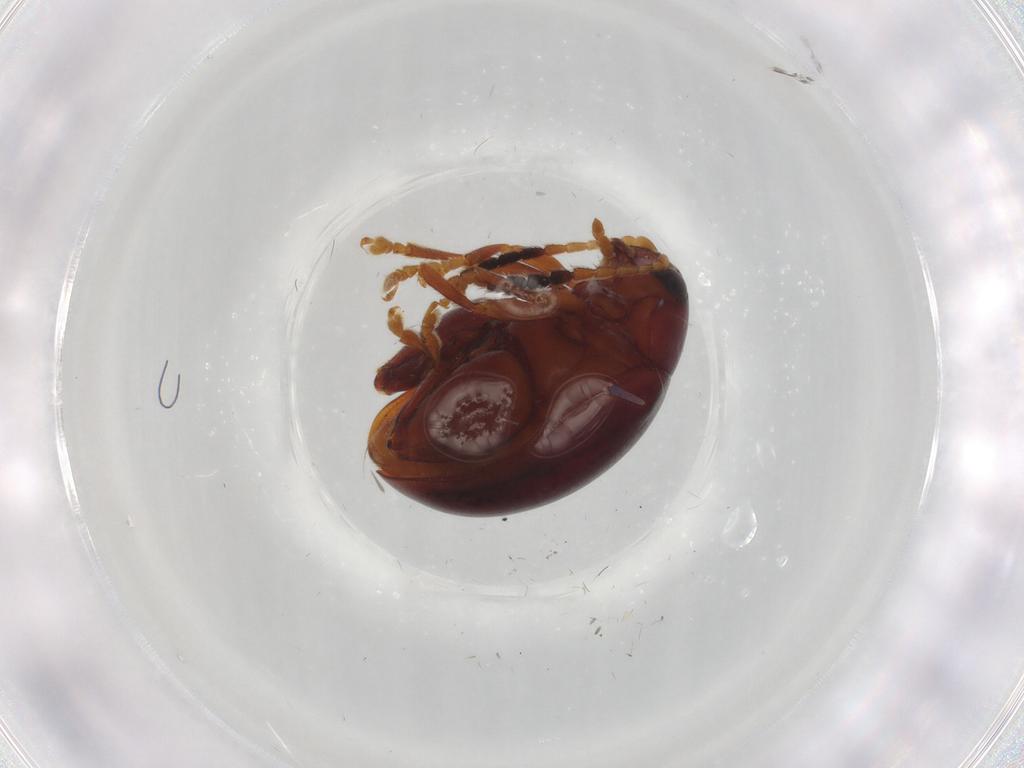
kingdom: Animalia
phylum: Arthropoda
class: Insecta
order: Coleoptera
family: Chrysomelidae
